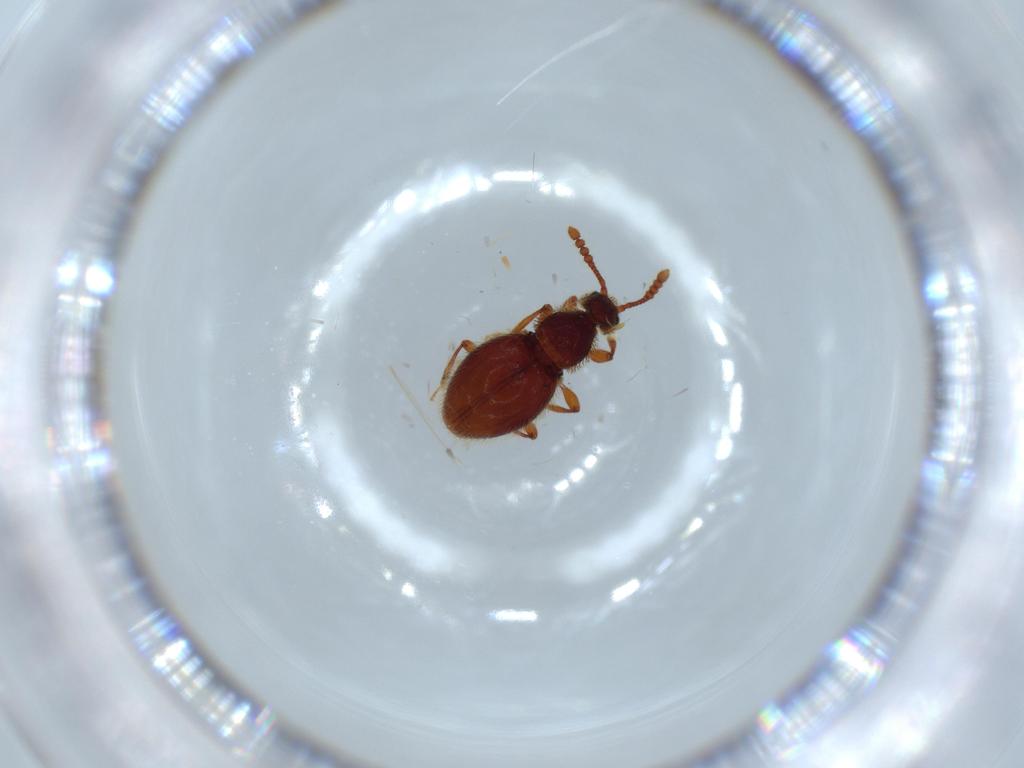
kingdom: Animalia
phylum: Arthropoda
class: Insecta
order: Coleoptera
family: Ptilodactylidae
